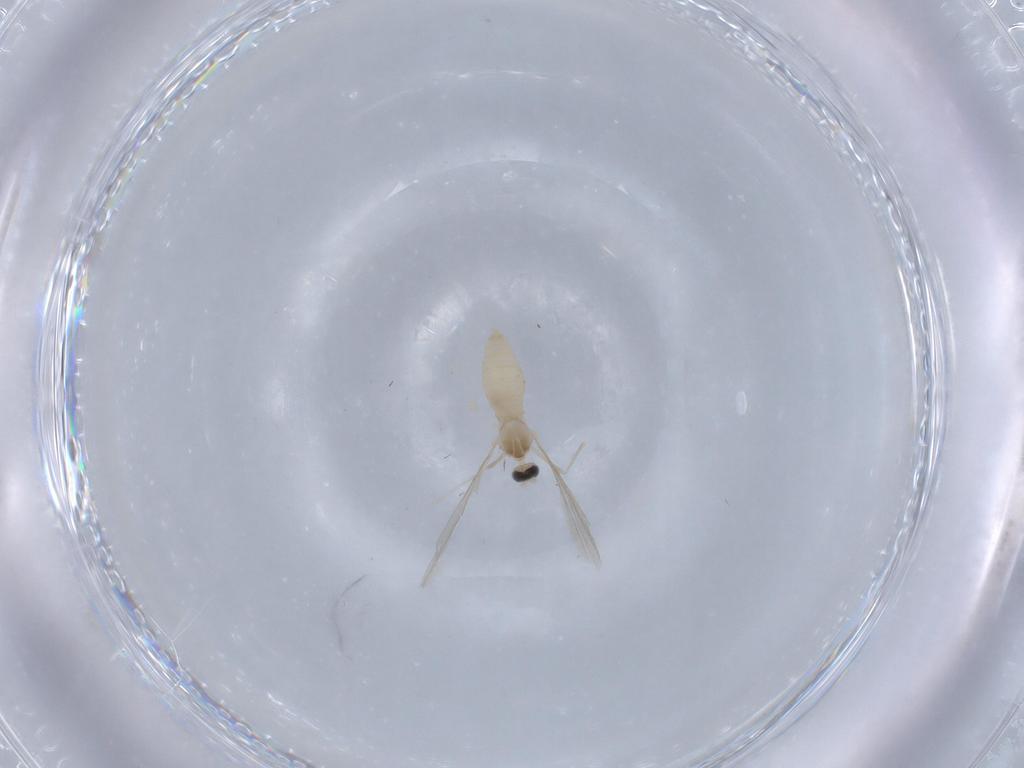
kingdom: Animalia
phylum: Arthropoda
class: Insecta
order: Diptera
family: Cecidomyiidae
